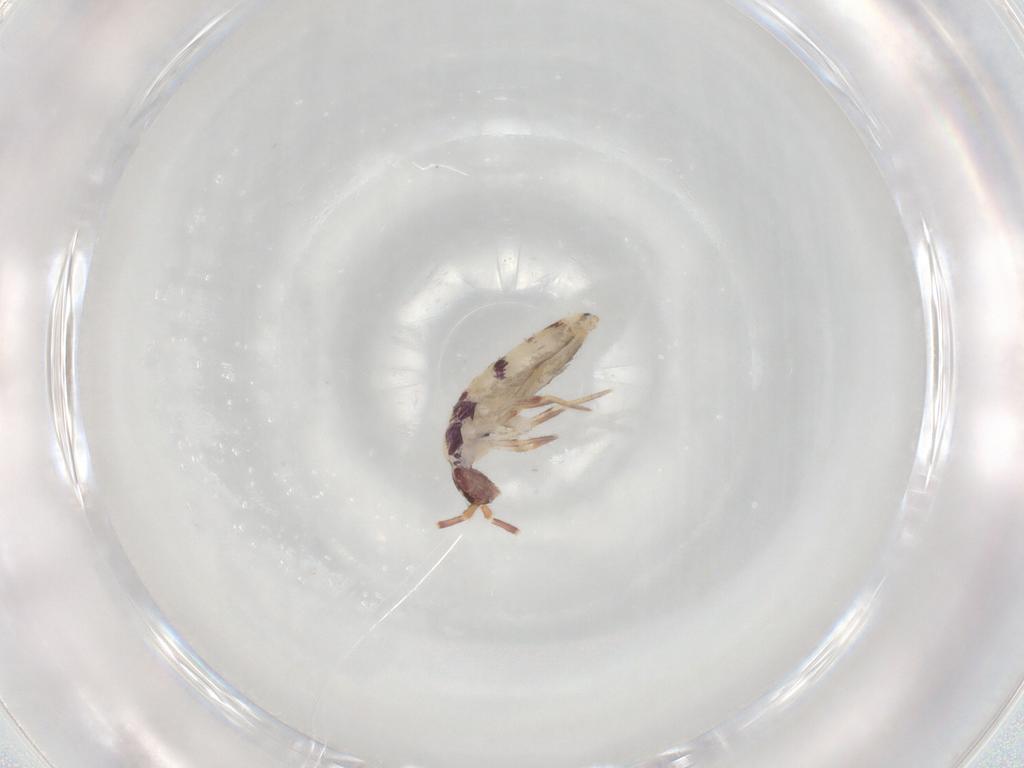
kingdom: Animalia
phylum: Arthropoda
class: Collembola
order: Entomobryomorpha
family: Entomobryidae
